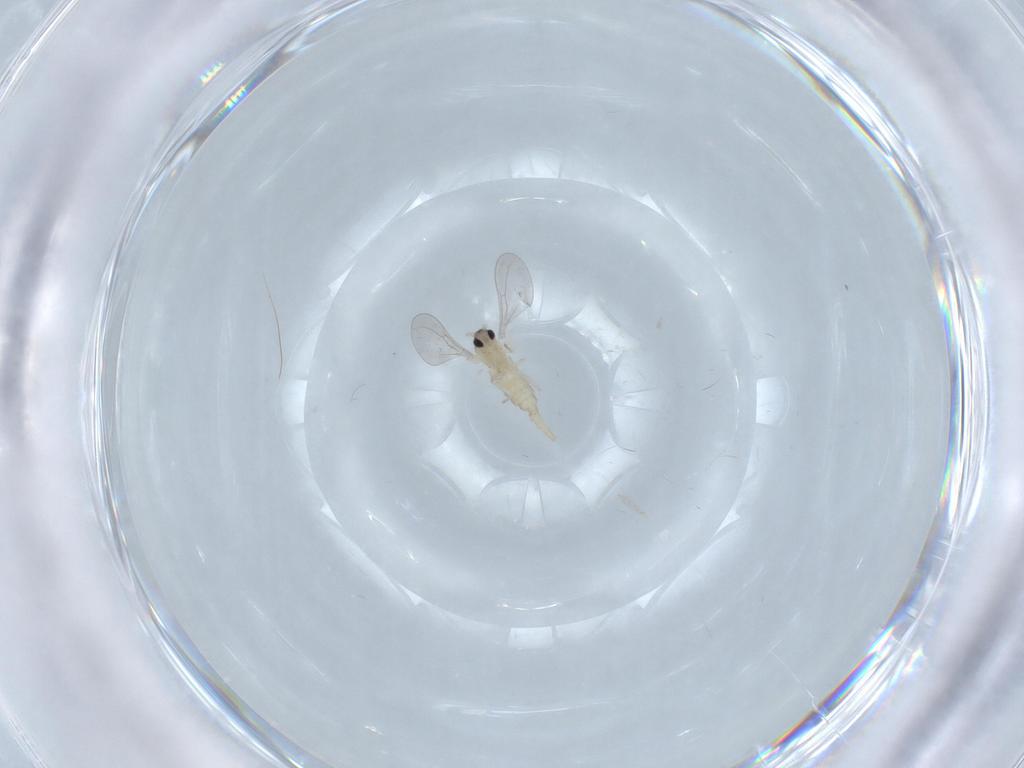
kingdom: Animalia
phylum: Arthropoda
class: Insecta
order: Diptera
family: Cecidomyiidae
